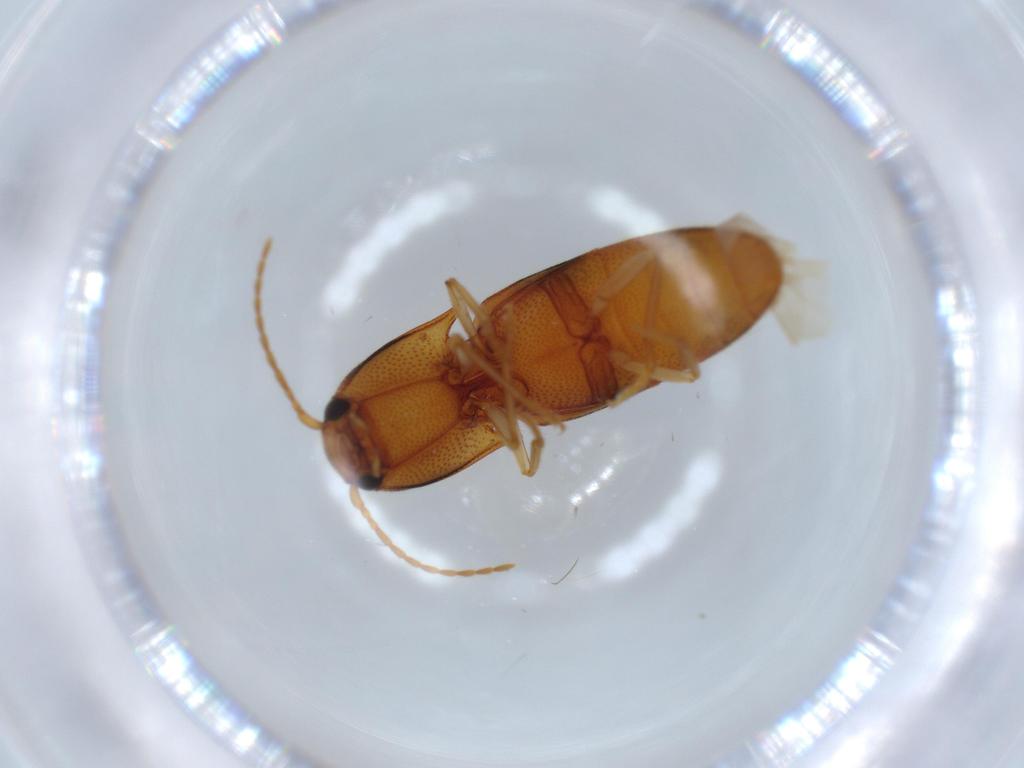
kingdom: Animalia
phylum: Arthropoda
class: Insecta
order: Coleoptera
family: Elateridae
